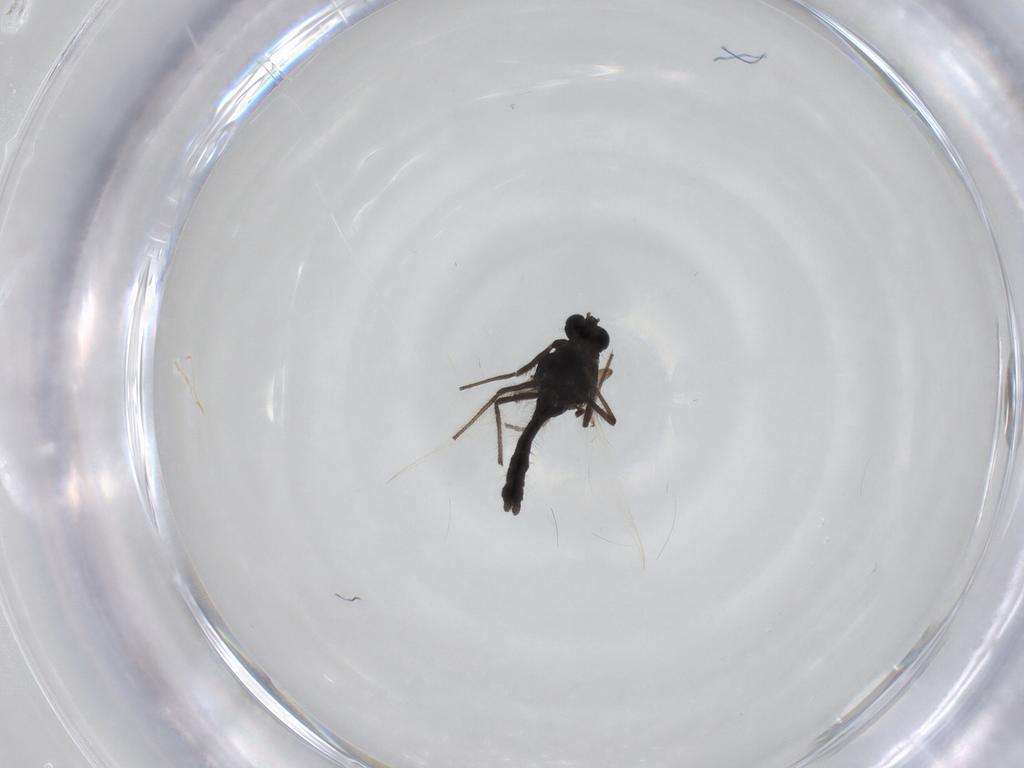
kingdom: Animalia
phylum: Arthropoda
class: Insecta
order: Diptera
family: Chironomidae
